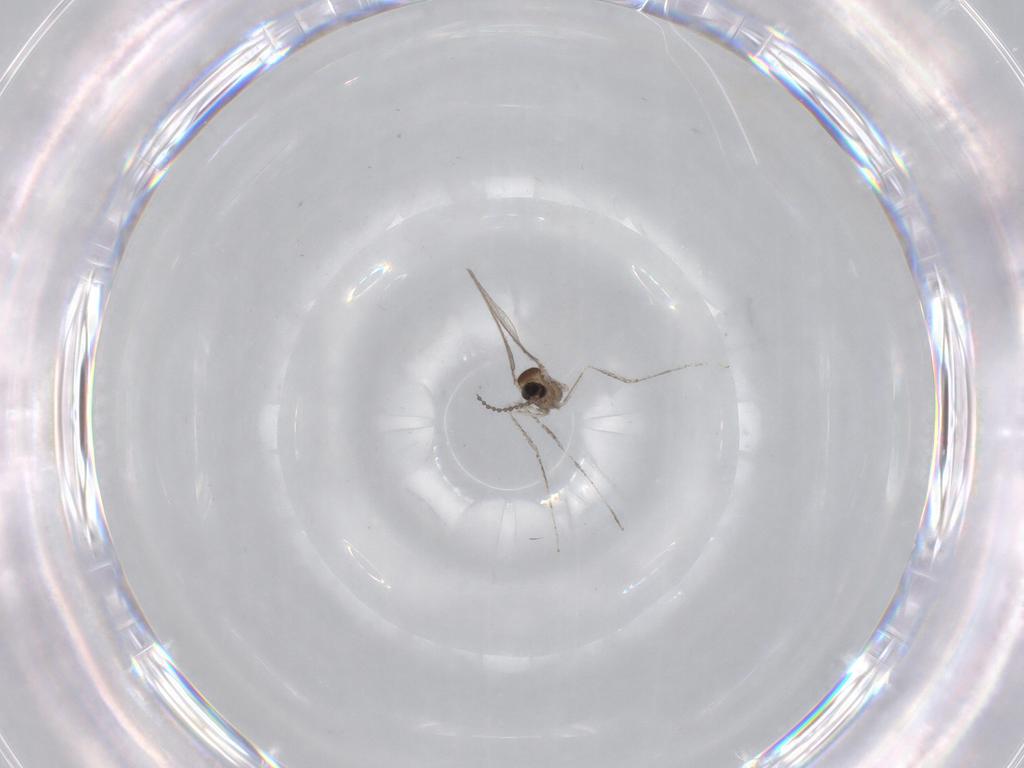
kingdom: Animalia
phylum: Arthropoda
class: Insecta
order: Diptera
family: Cecidomyiidae
